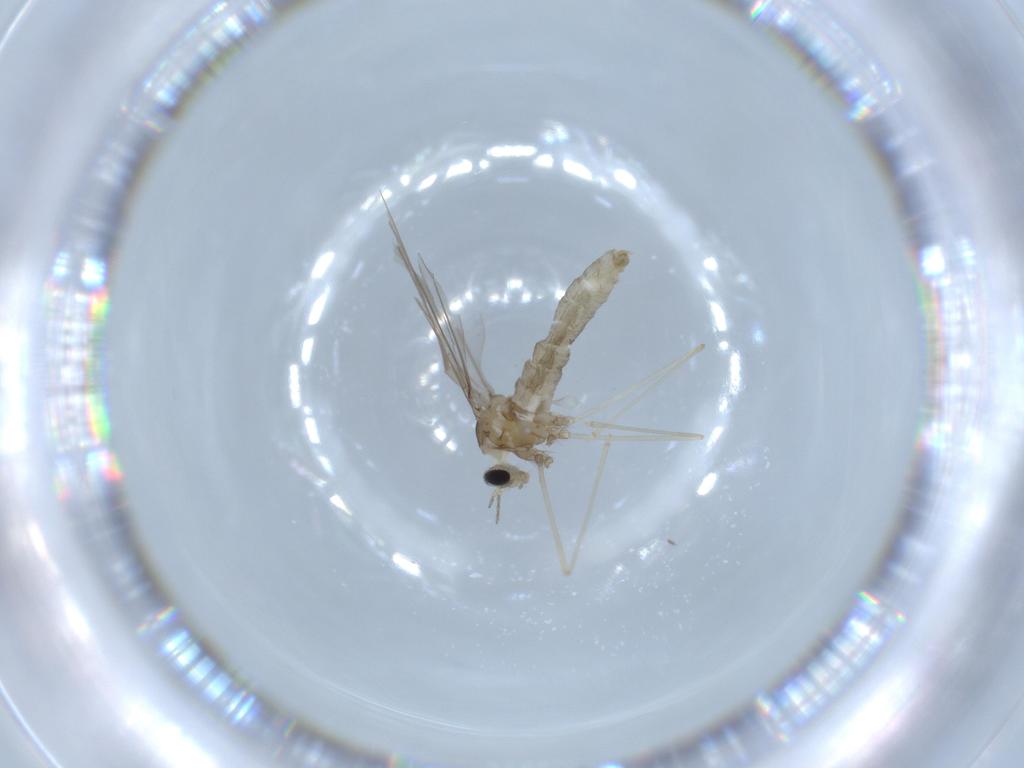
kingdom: Animalia
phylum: Arthropoda
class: Insecta
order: Diptera
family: Cecidomyiidae
